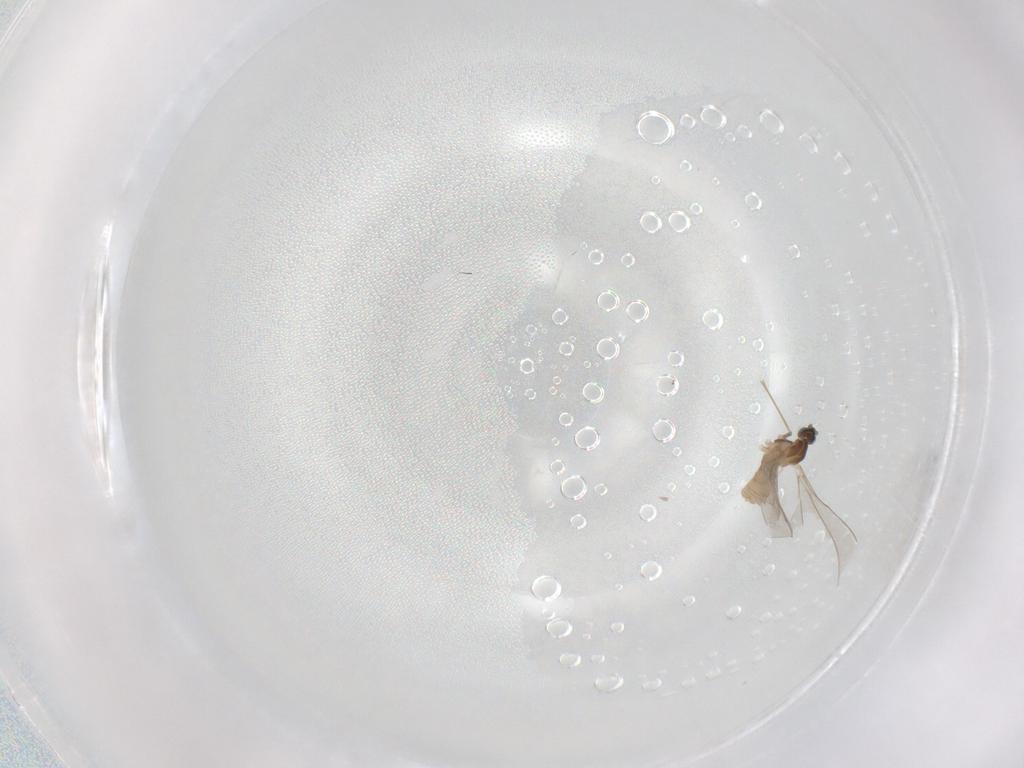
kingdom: Animalia
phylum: Arthropoda
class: Insecta
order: Diptera
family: Cecidomyiidae
